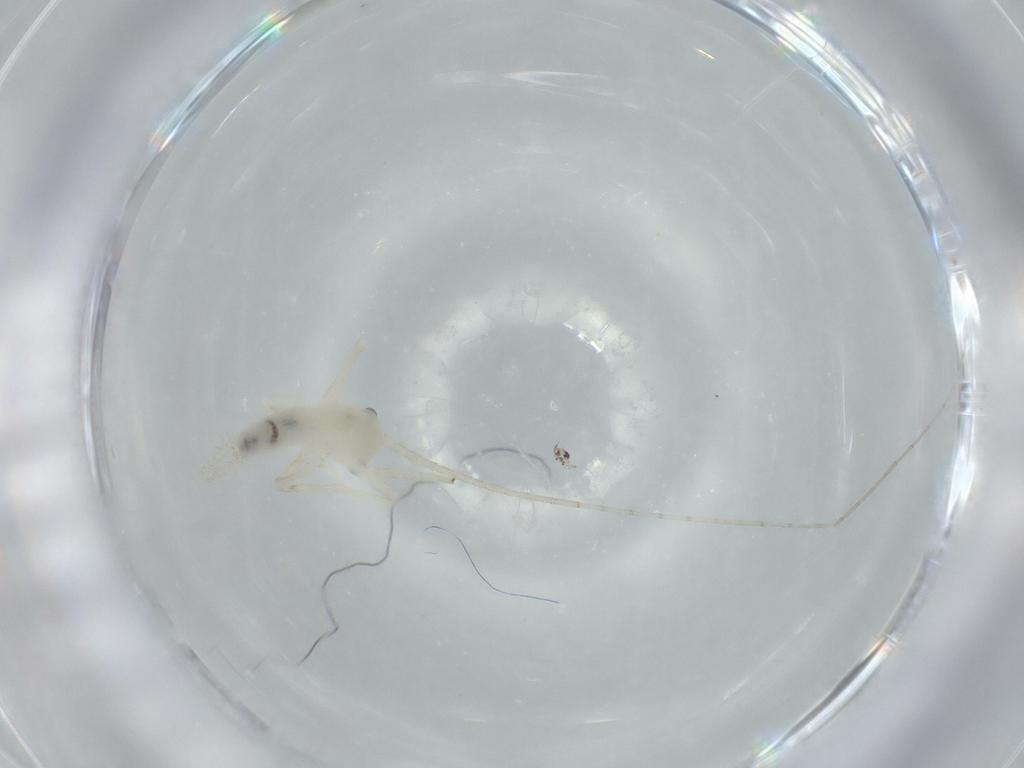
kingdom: Animalia
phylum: Arthropoda
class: Insecta
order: Orthoptera
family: Trigonidiidae
